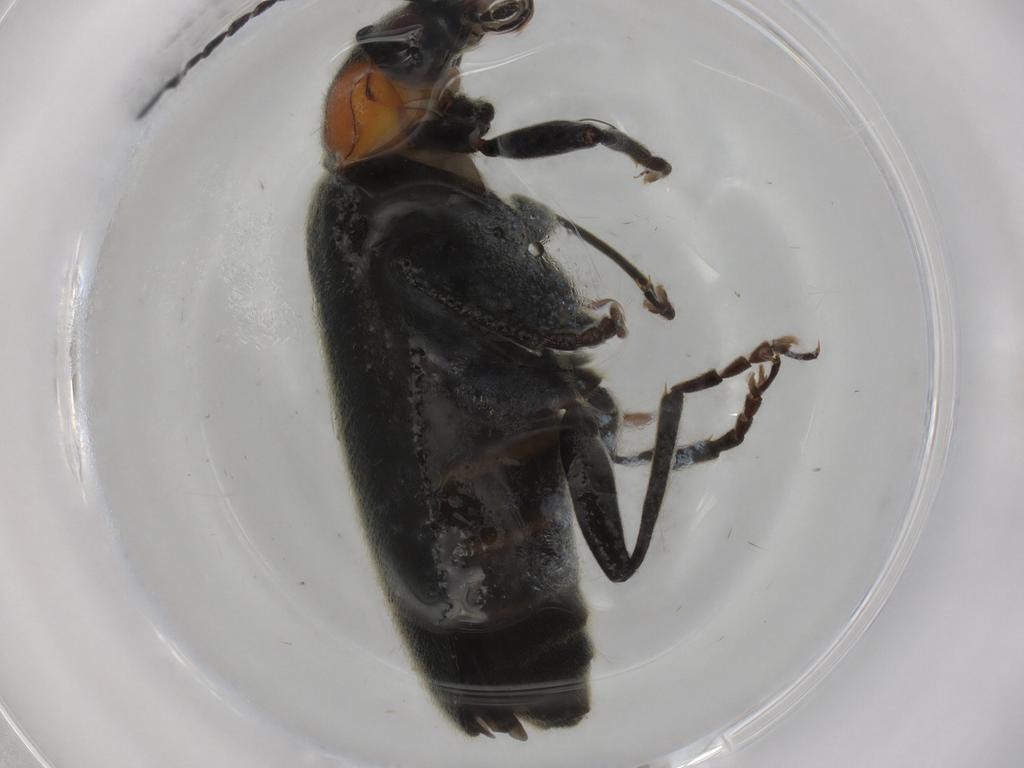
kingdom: Animalia
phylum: Arthropoda
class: Insecta
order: Coleoptera
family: Cantharidae
